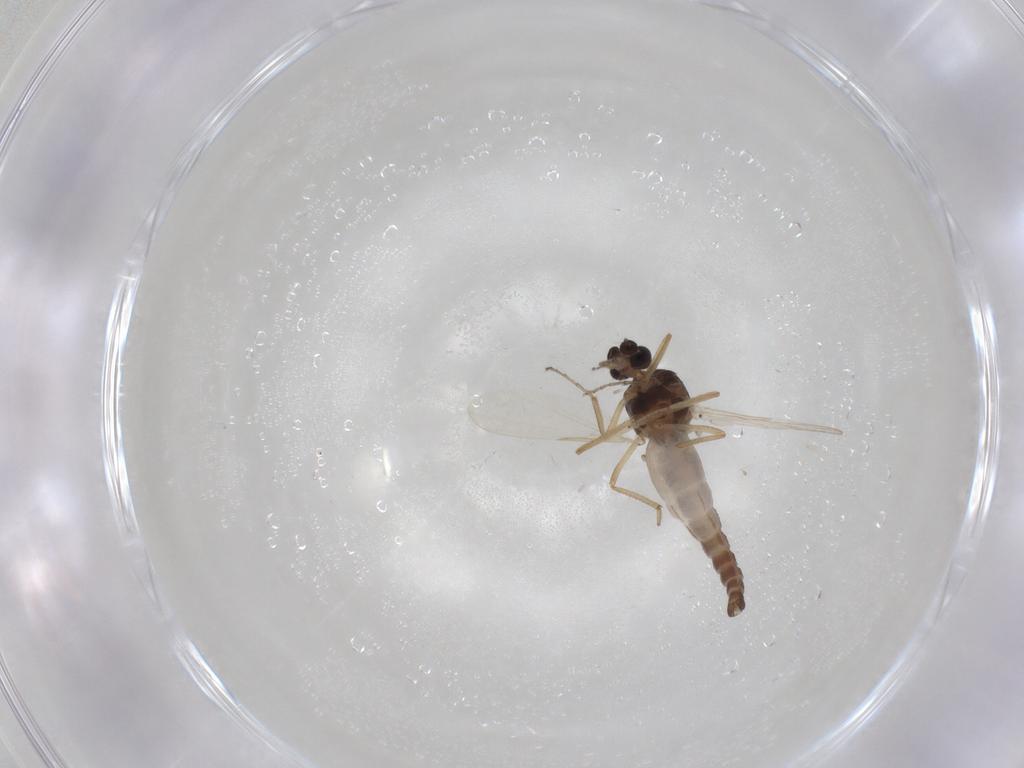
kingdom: Animalia
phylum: Arthropoda
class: Insecta
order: Diptera
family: Ceratopogonidae
